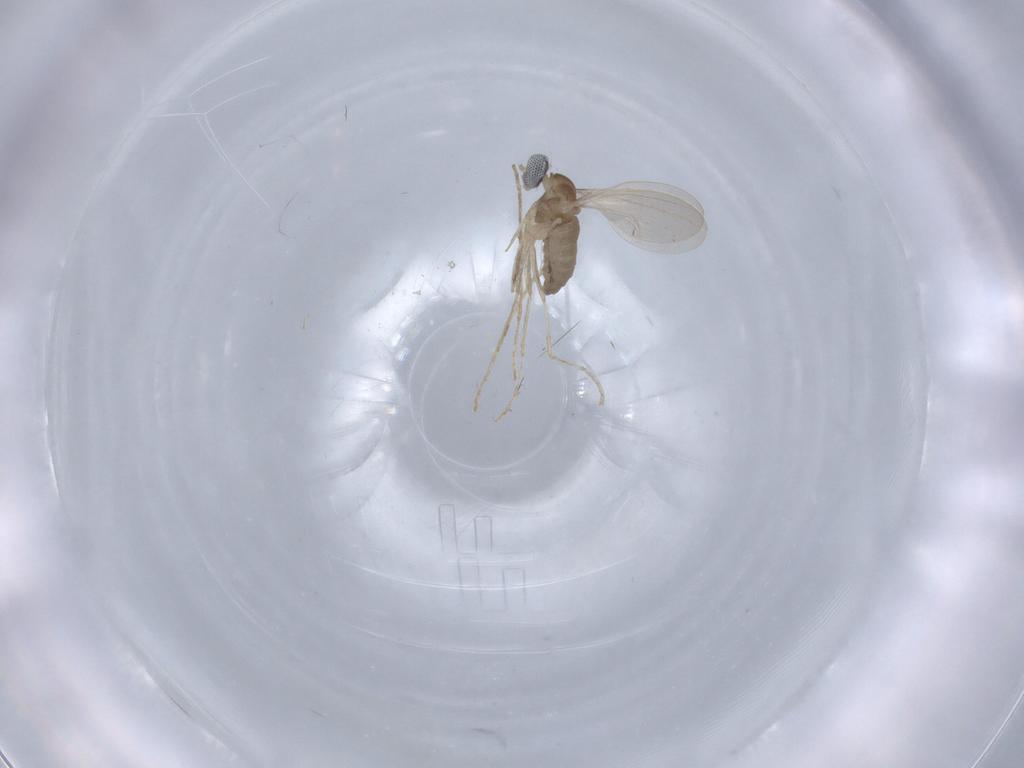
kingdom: Animalia
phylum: Arthropoda
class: Insecta
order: Diptera
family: Cecidomyiidae
